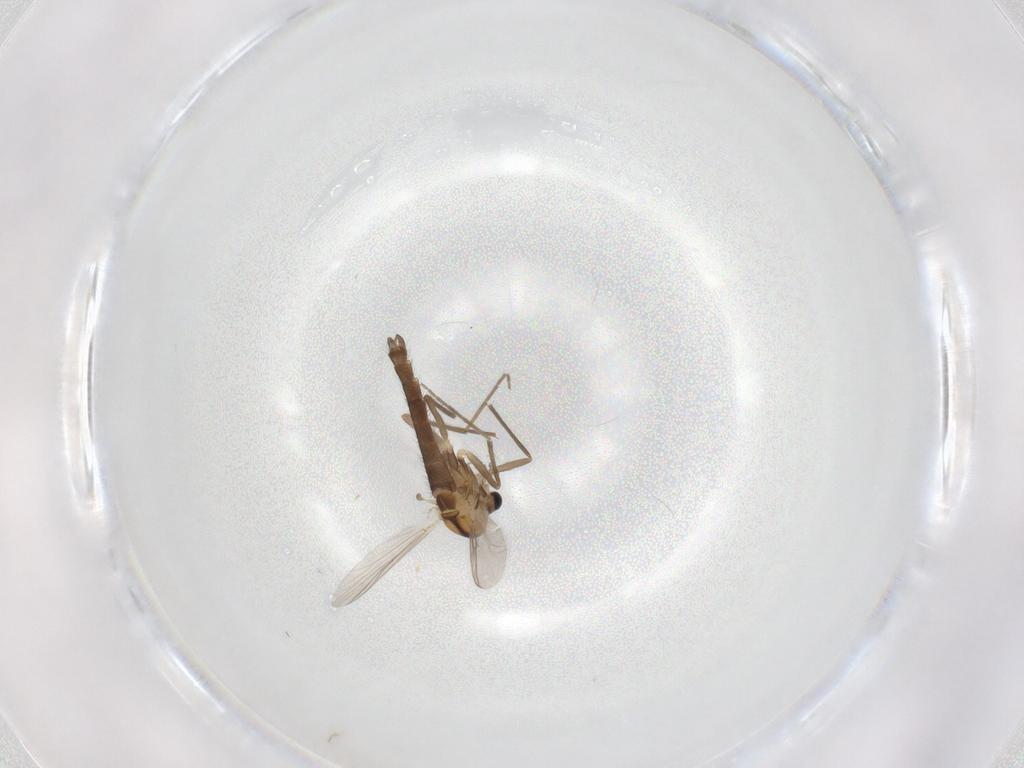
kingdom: Animalia
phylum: Arthropoda
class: Insecta
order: Diptera
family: Chironomidae
